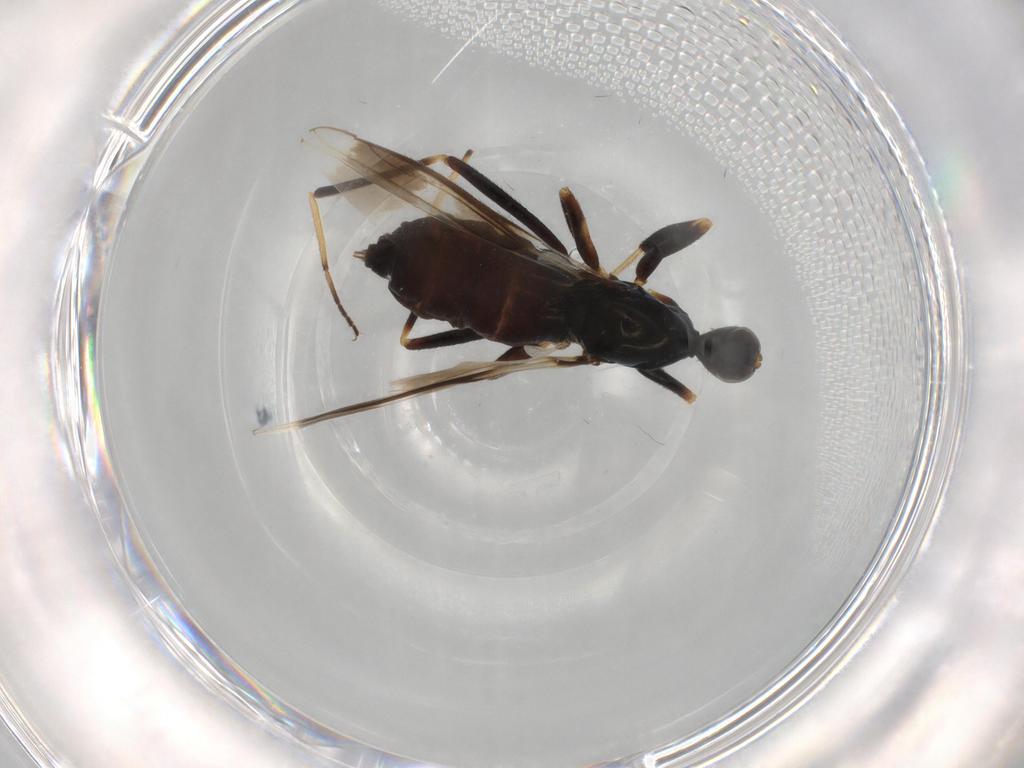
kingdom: Animalia
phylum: Arthropoda
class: Insecta
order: Diptera
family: Hybotidae
